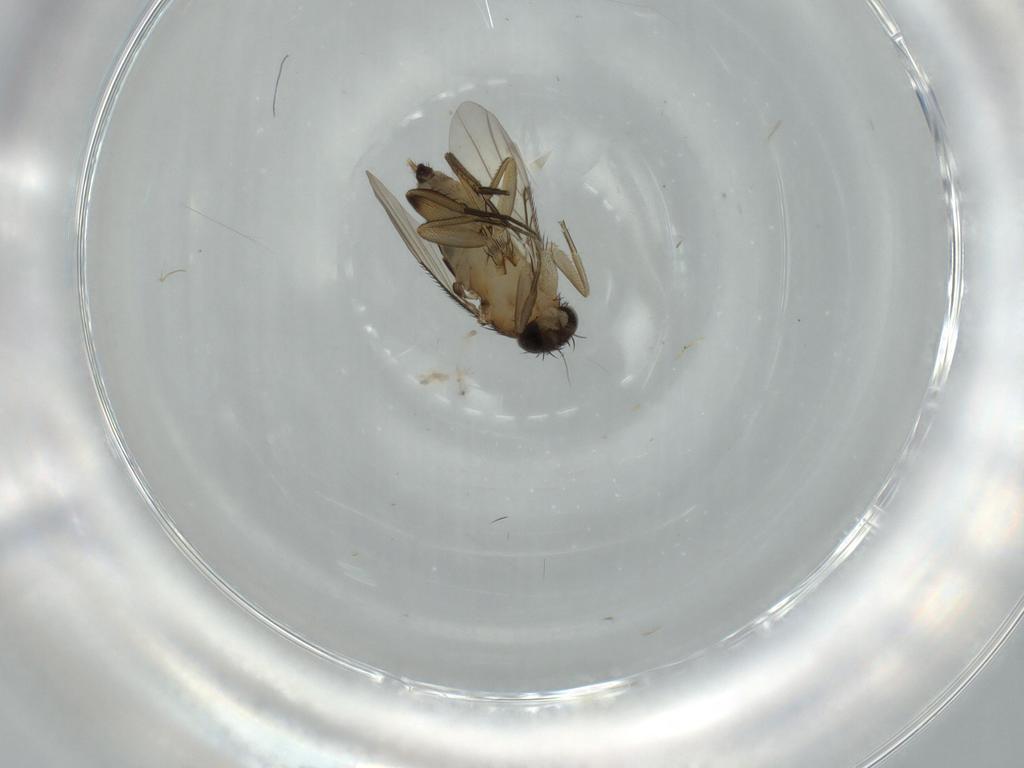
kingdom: Animalia
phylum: Arthropoda
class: Insecta
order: Diptera
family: Phoridae
